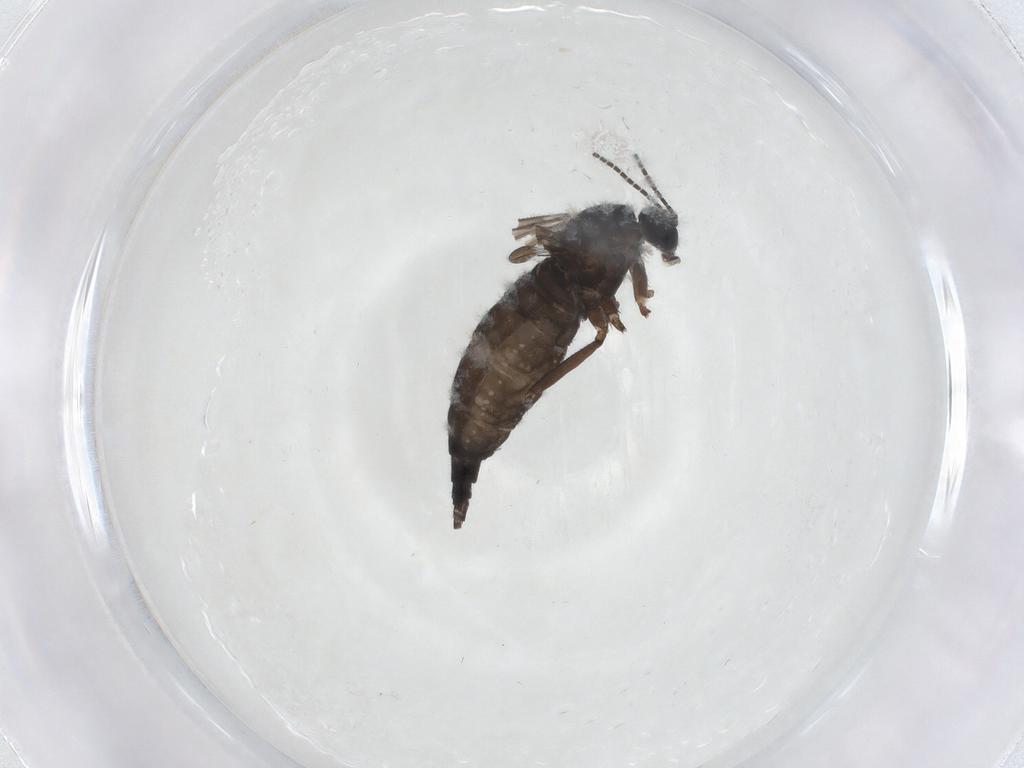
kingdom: Animalia
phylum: Arthropoda
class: Insecta
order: Diptera
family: Sciaridae
